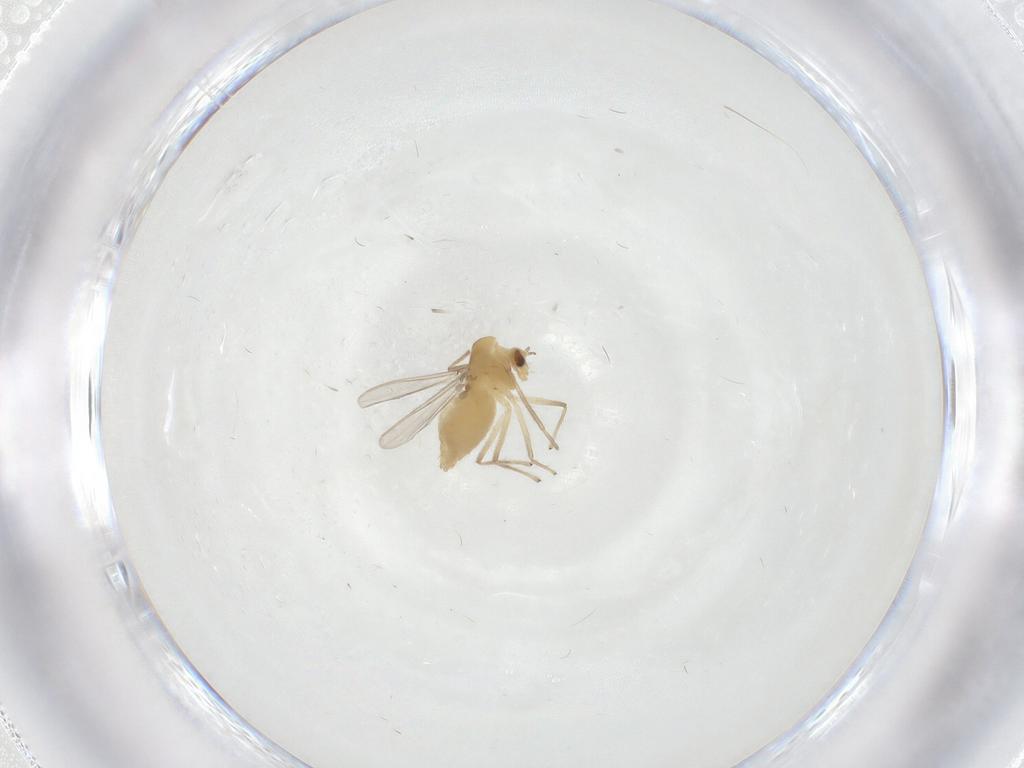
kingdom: Animalia
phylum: Arthropoda
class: Insecta
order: Diptera
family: Chironomidae
